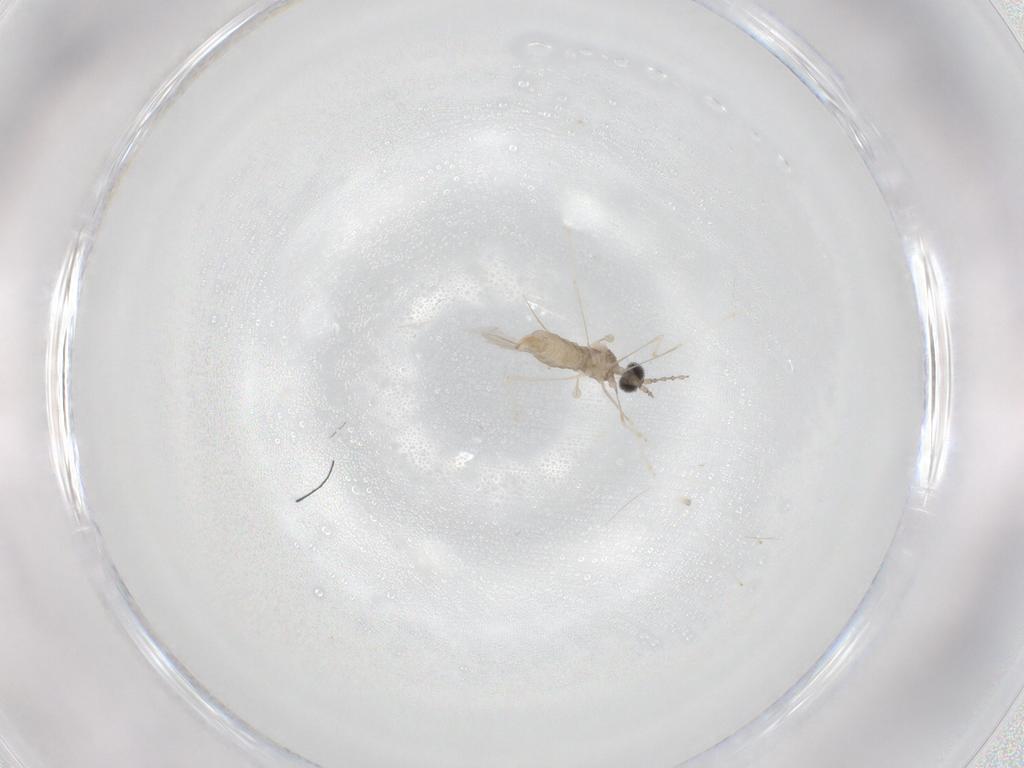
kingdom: Animalia
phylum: Arthropoda
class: Insecta
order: Diptera
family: Cecidomyiidae
